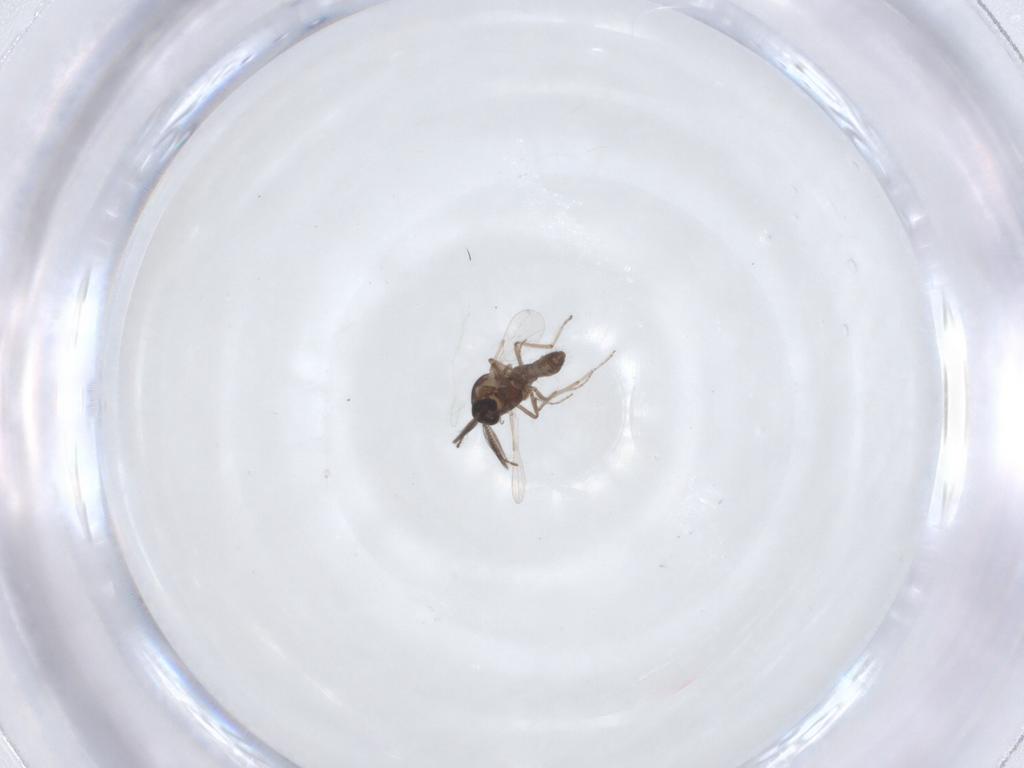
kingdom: Animalia
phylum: Arthropoda
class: Insecta
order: Diptera
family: Ceratopogonidae
